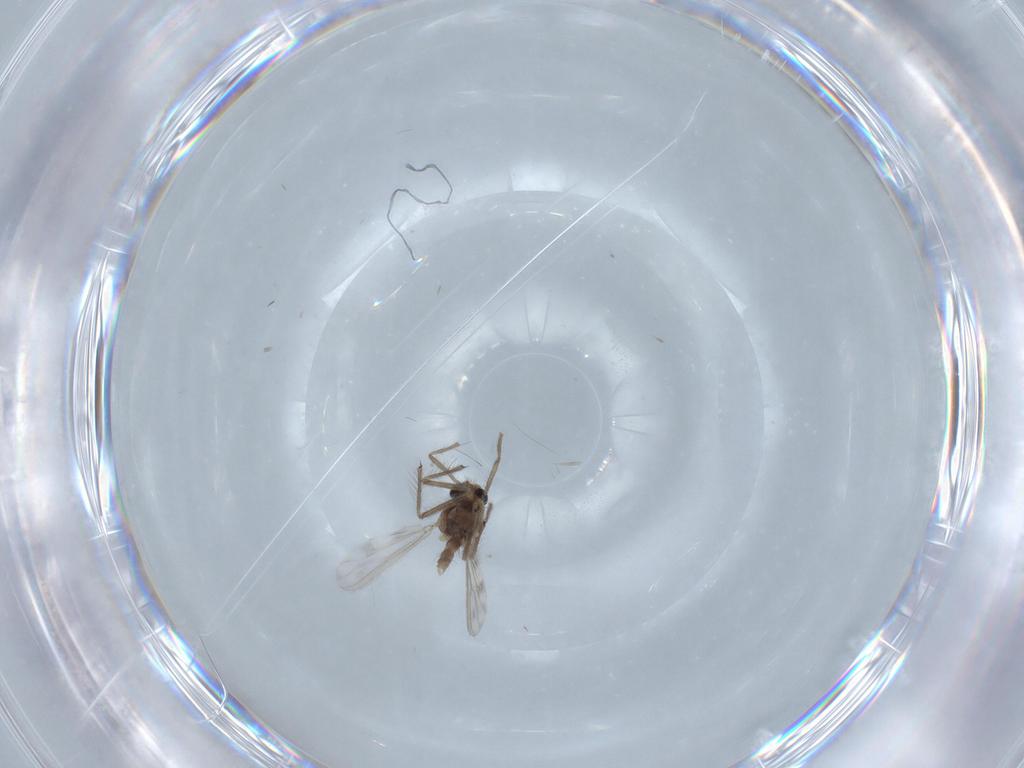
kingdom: Animalia
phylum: Arthropoda
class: Insecta
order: Diptera
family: Chironomidae
